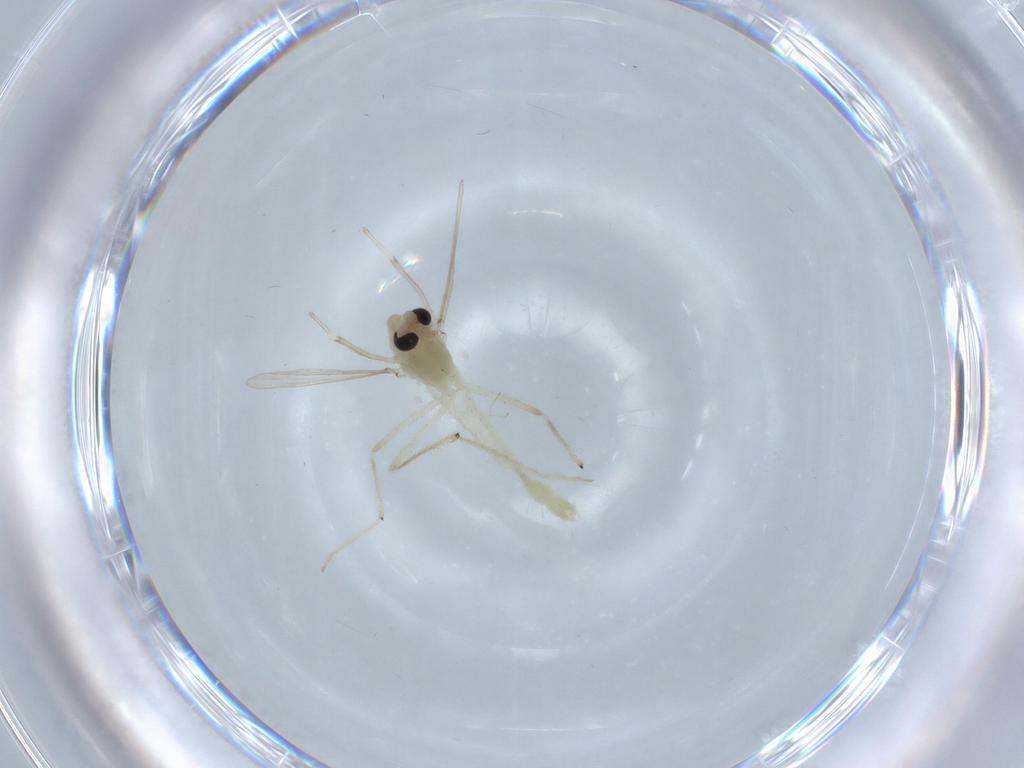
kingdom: Animalia
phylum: Arthropoda
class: Insecta
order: Diptera
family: Chironomidae
